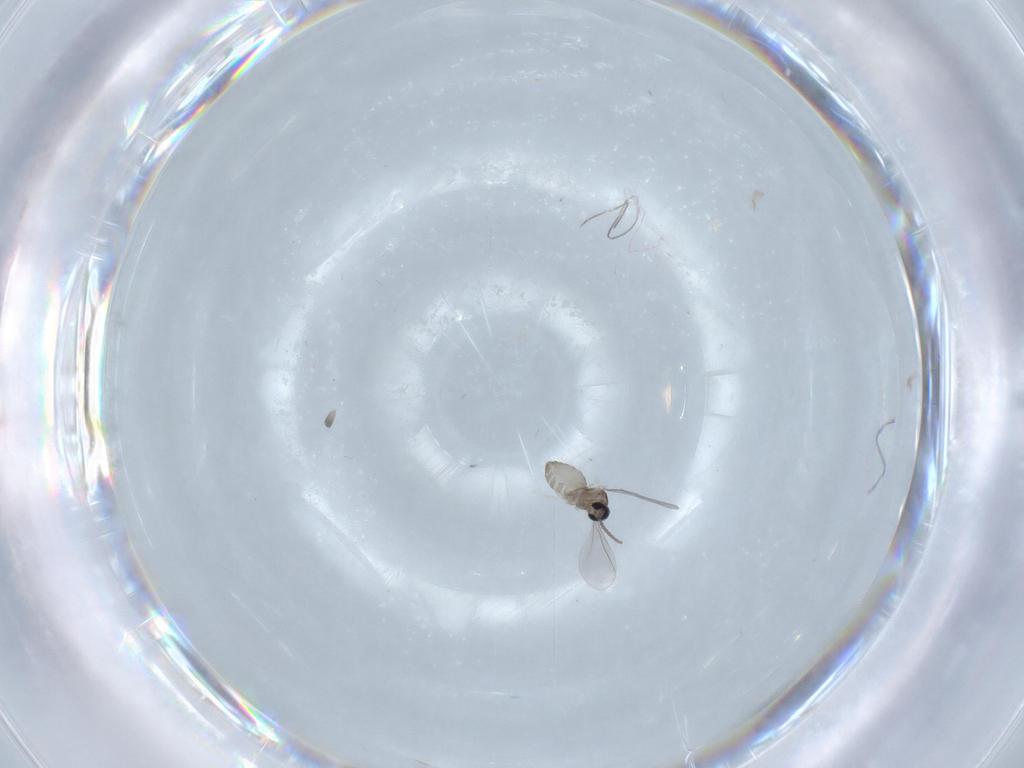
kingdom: Animalia
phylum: Arthropoda
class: Insecta
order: Diptera
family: Cecidomyiidae
